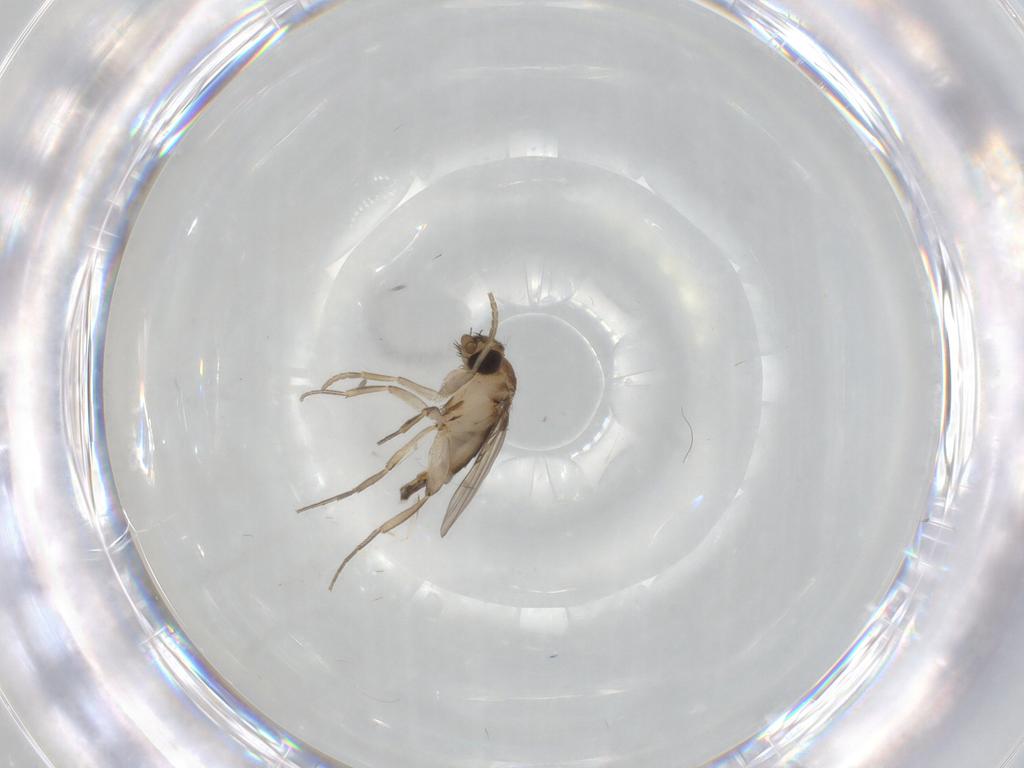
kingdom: Animalia
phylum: Arthropoda
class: Insecta
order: Diptera
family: Phoridae
